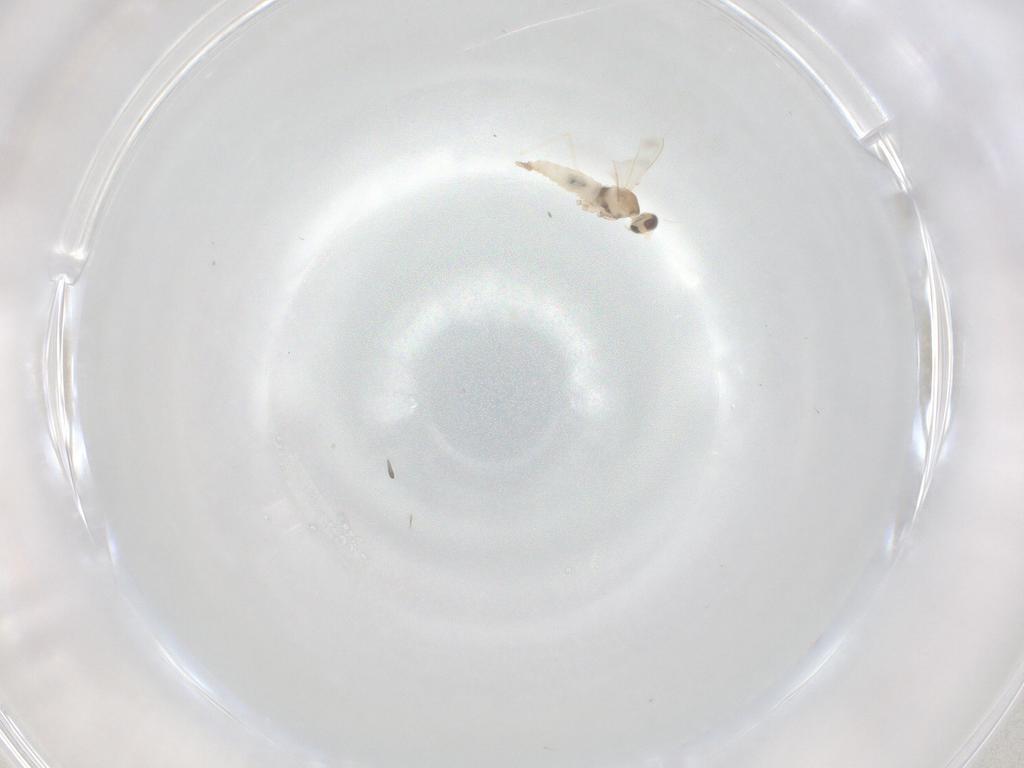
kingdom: Animalia
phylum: Arthropoda
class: Insecta
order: Diptera
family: Cecidomyiidae
